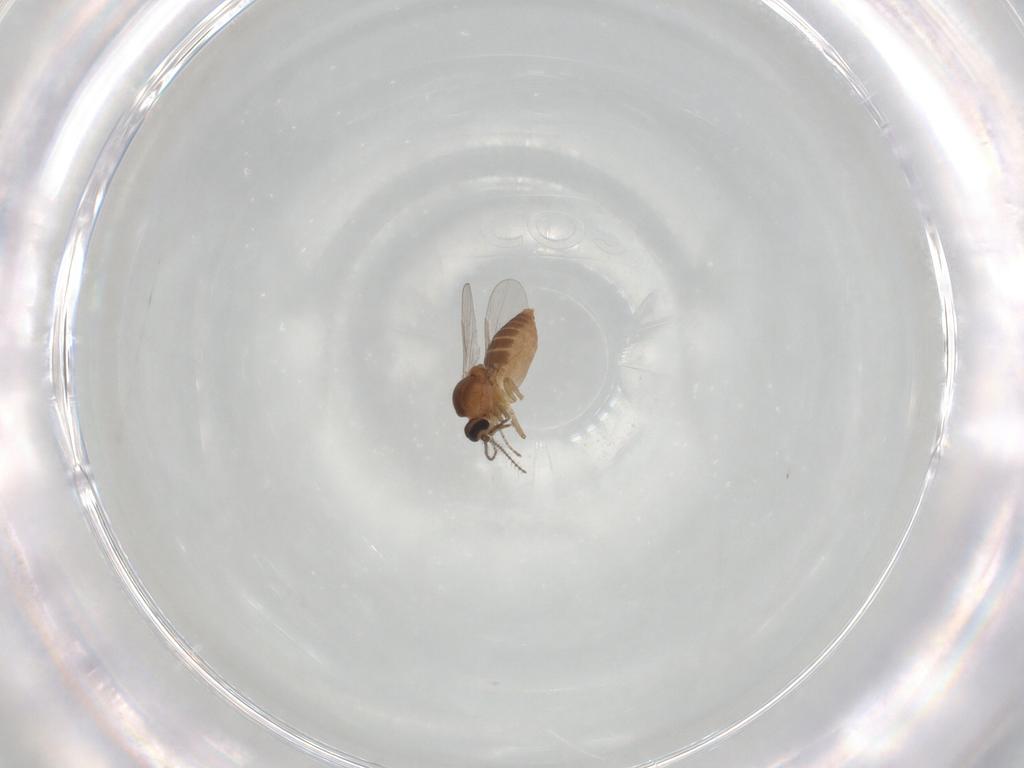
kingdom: Animalia
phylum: Arthropoda
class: Insecta
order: Diptera
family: Ceratopogonidae
